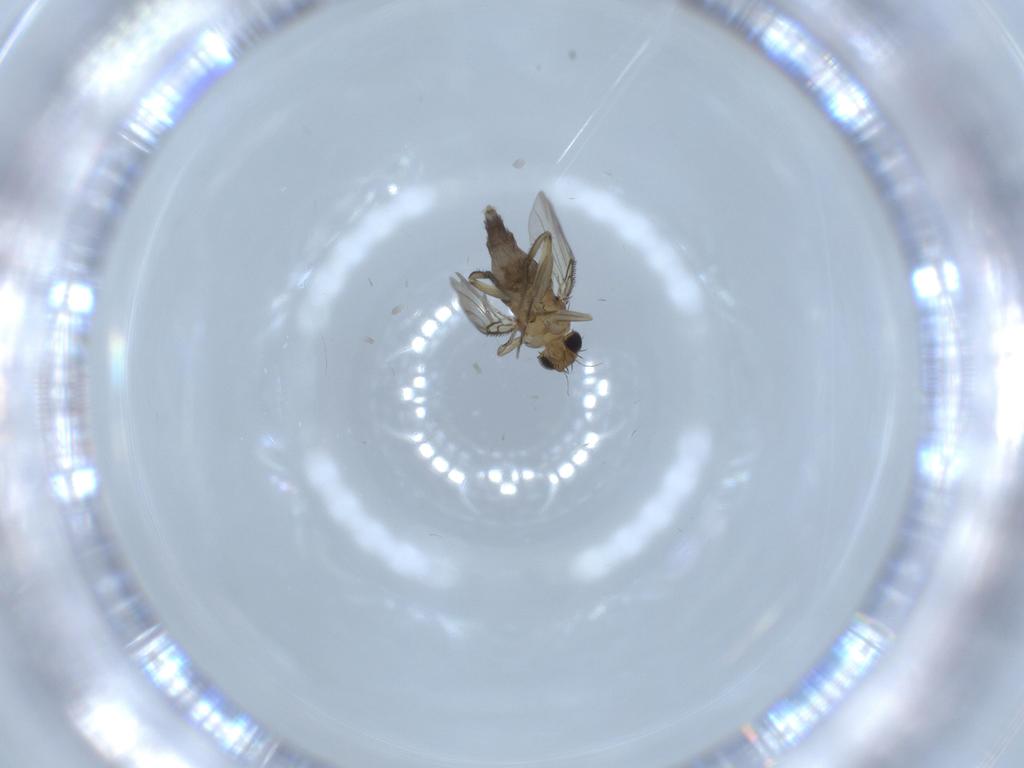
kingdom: Animalia
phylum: Arthropoda
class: Insecta
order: Diptera
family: Chironomidae
